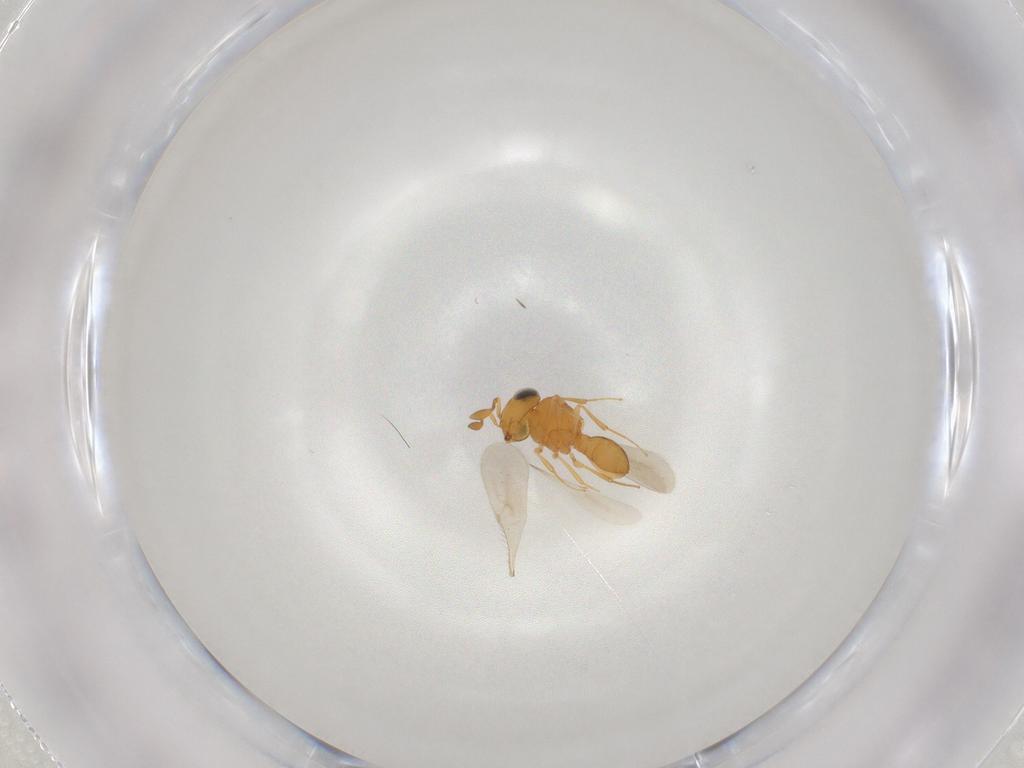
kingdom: Animalia
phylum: Arthropoda
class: Insecta
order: Hymenoptera
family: Scelionidae
